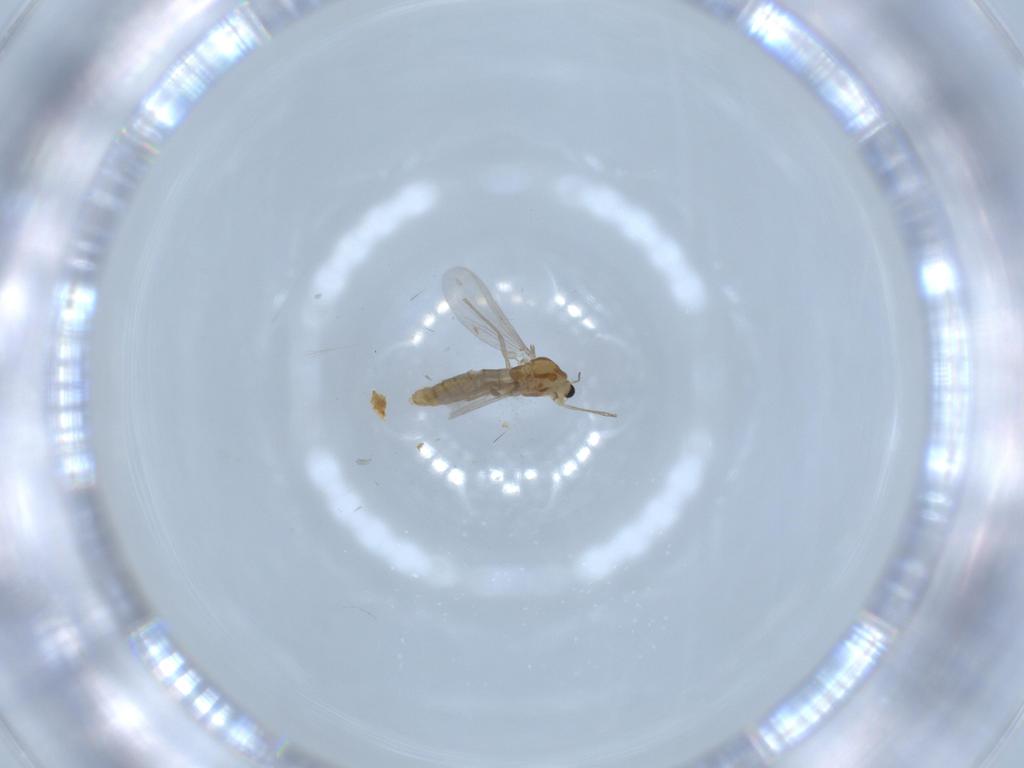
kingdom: Animalia
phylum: Arthropoda
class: Insecta
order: Diptera
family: Chironomidae
